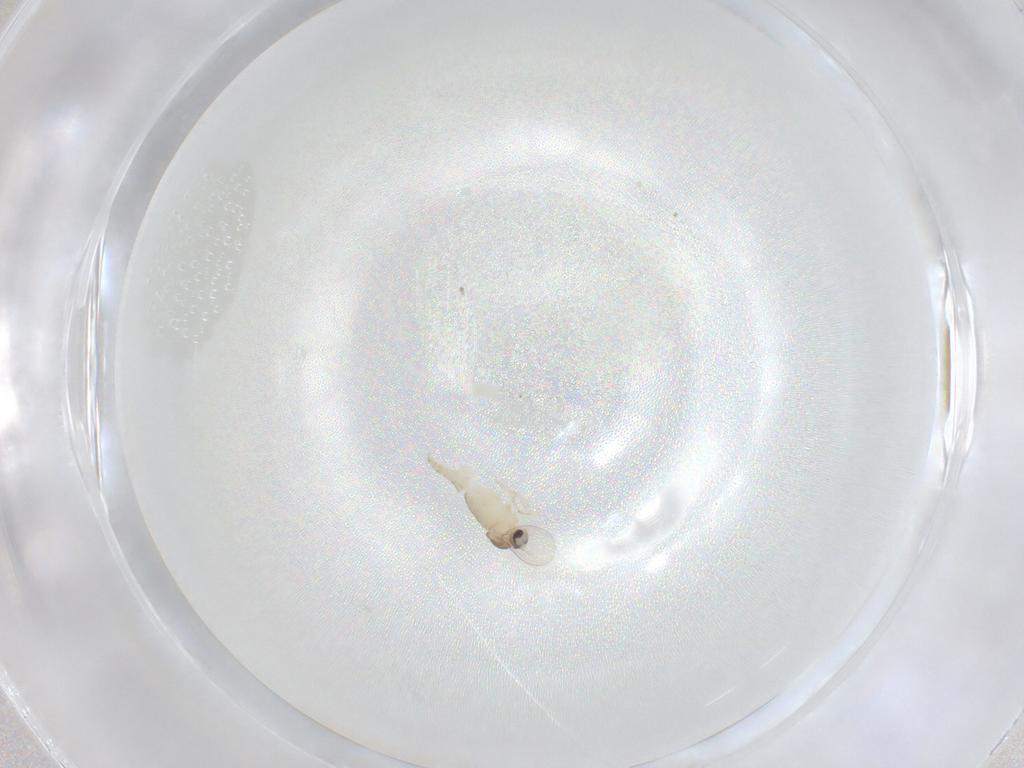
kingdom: Animalia
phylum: Arthropoda
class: Insecta
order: Diptera
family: Cecidomyiidae
